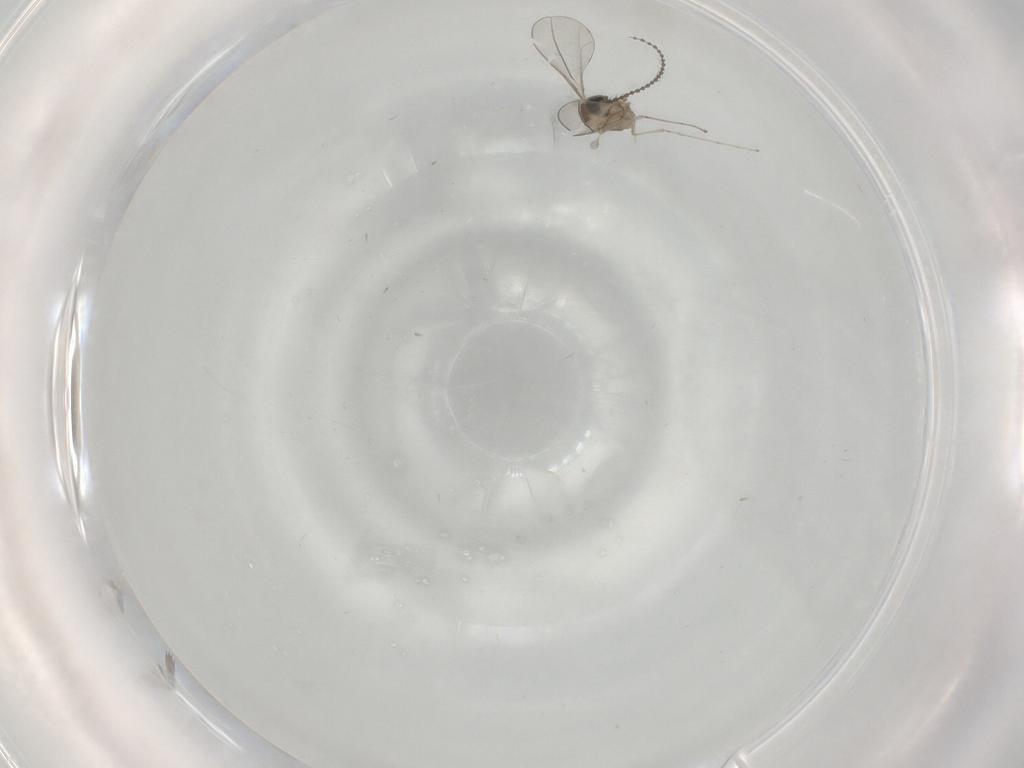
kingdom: Animalia
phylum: Arthropoda
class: Insecta
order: Diptera
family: Cecidomyiidae
